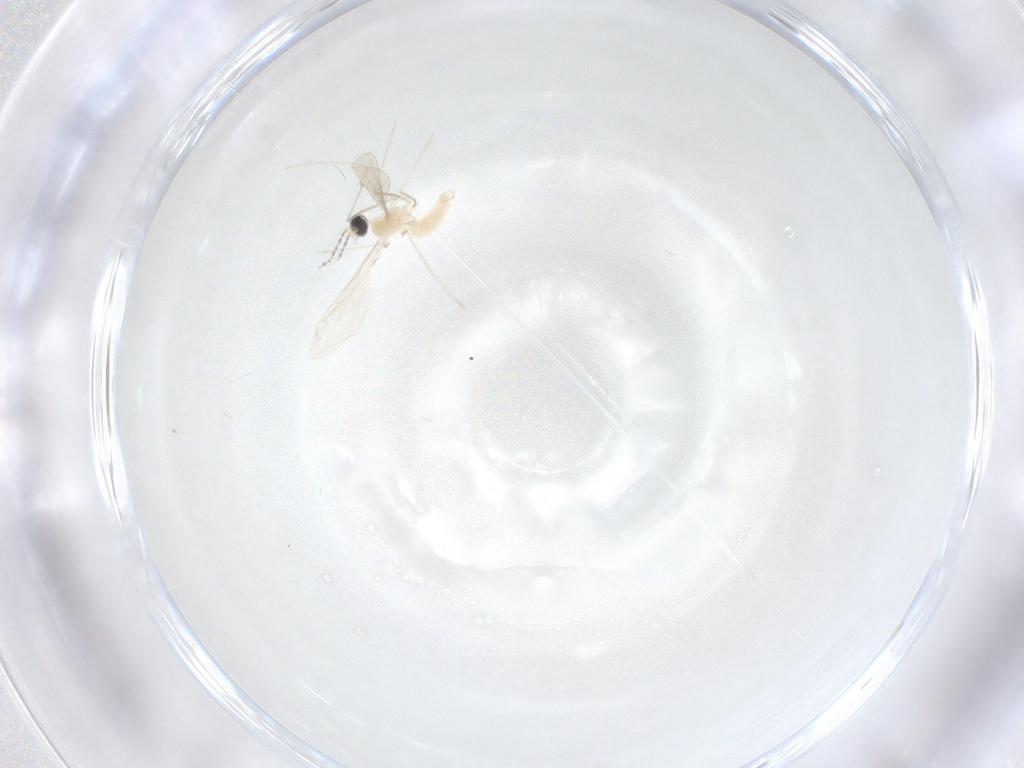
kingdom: Animalia
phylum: Arthropoda
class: Insecta
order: Diptera
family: Cecidomyiidae
